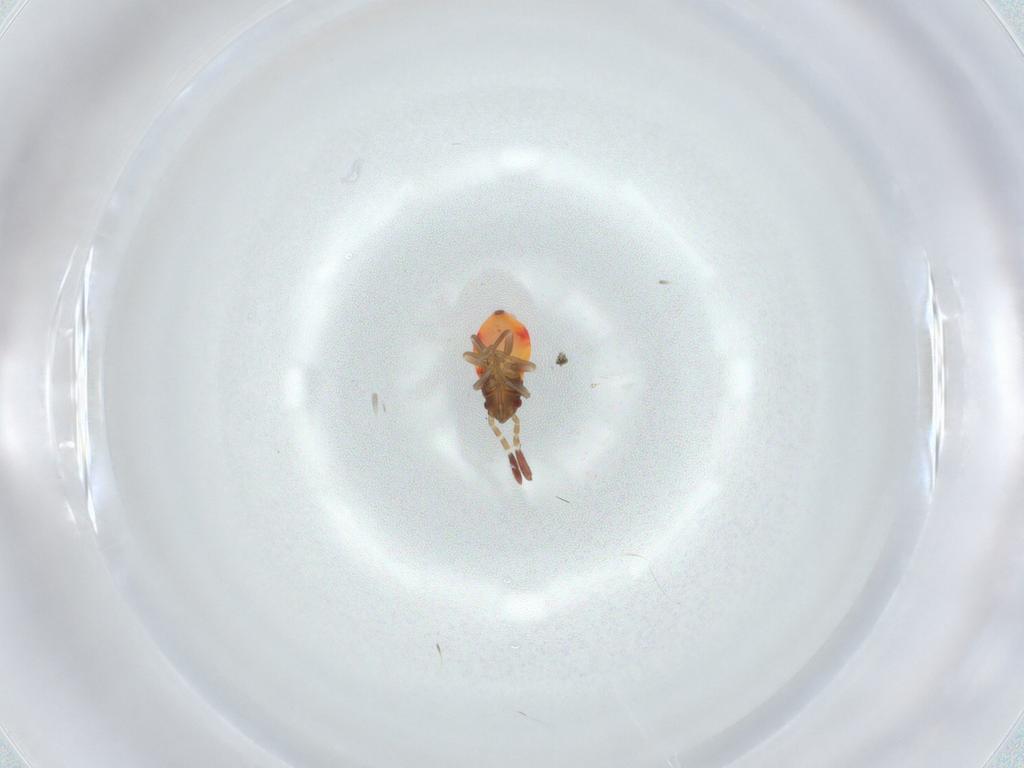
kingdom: Animalia
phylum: Arthropoda
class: Insecta
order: Hemiptera
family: Rhyparochromidae
